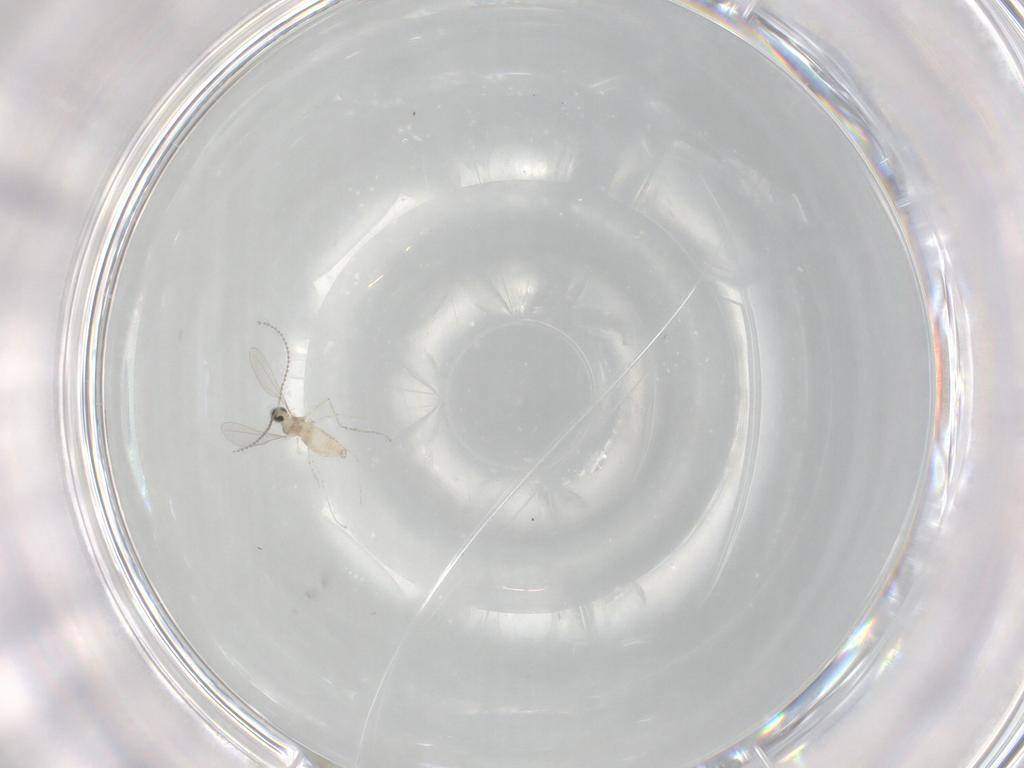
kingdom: Animalia
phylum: Arthropoda
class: Insecta
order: Diptera
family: Cecidomyiidae
